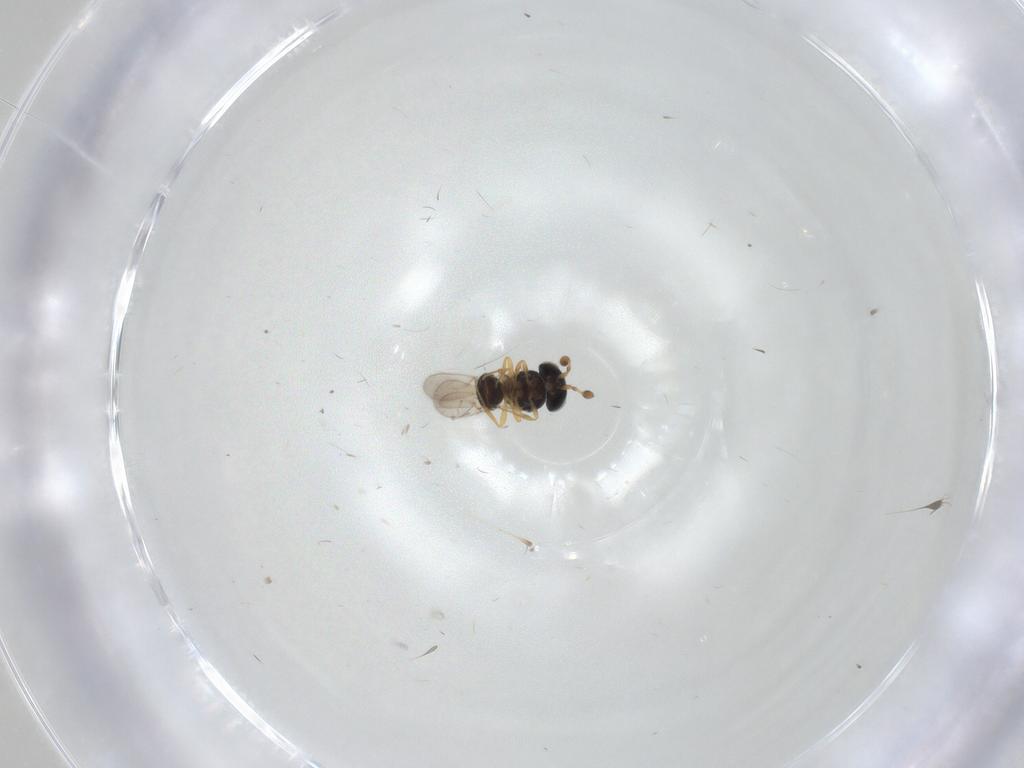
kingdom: Animalia
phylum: Arthropoda
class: Insecta
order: Hymenoptera
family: Scelionidae
